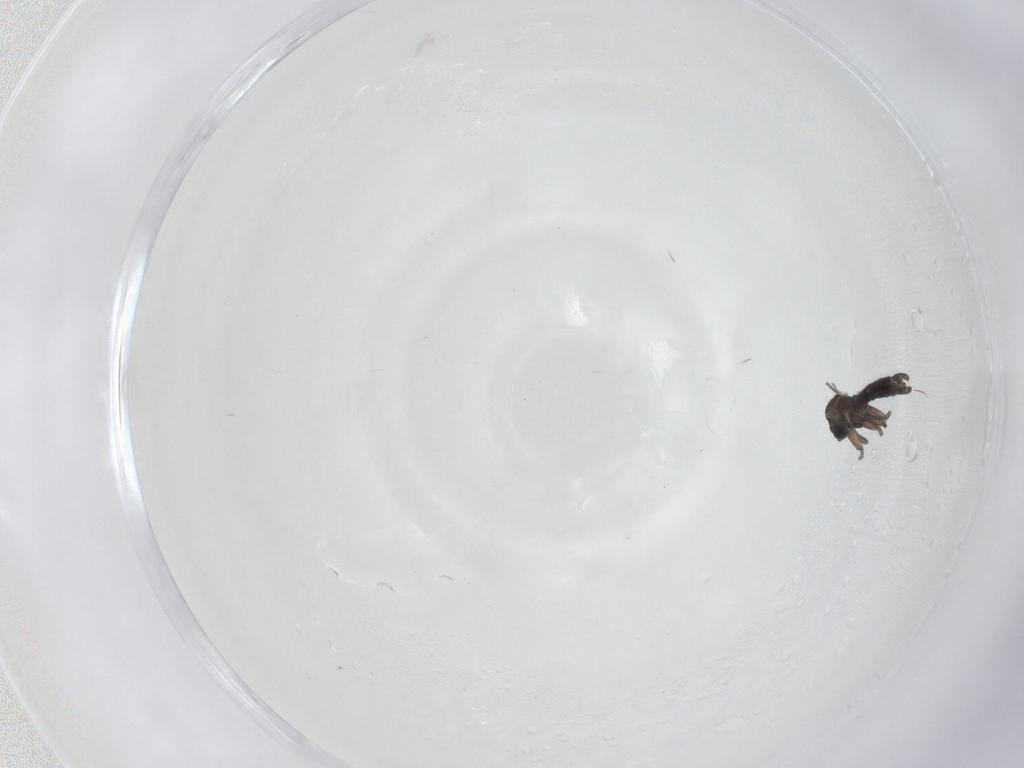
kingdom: Animalia
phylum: Arthropoda
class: Insecta
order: Diptera
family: Sciaridae
